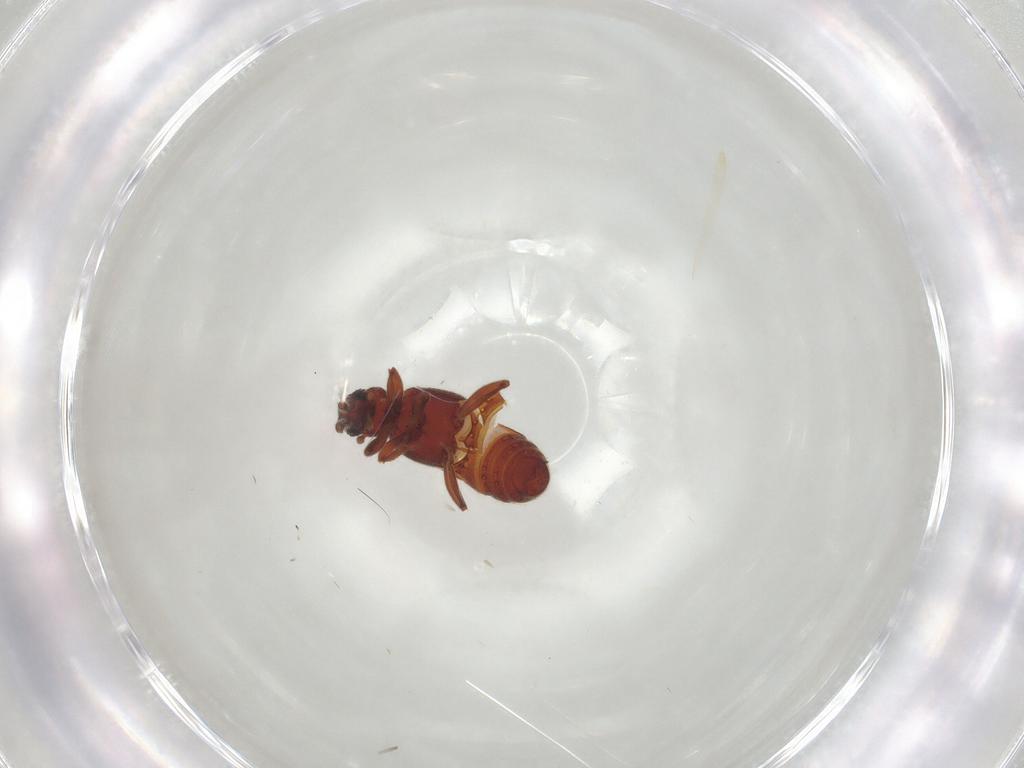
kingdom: Animalia
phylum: Arthropoda
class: Insecta
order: Coleoptera
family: Staphylinidae
